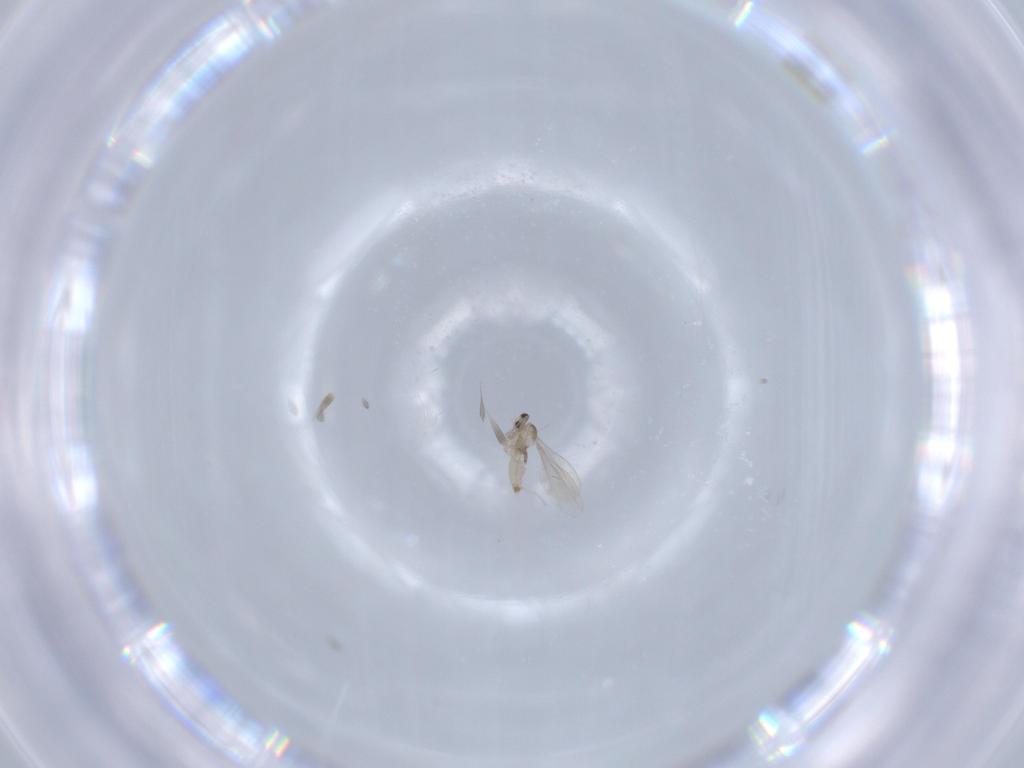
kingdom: Animalia
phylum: Arthropoda
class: Insecta
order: Diptera
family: Cecidomyiidae
